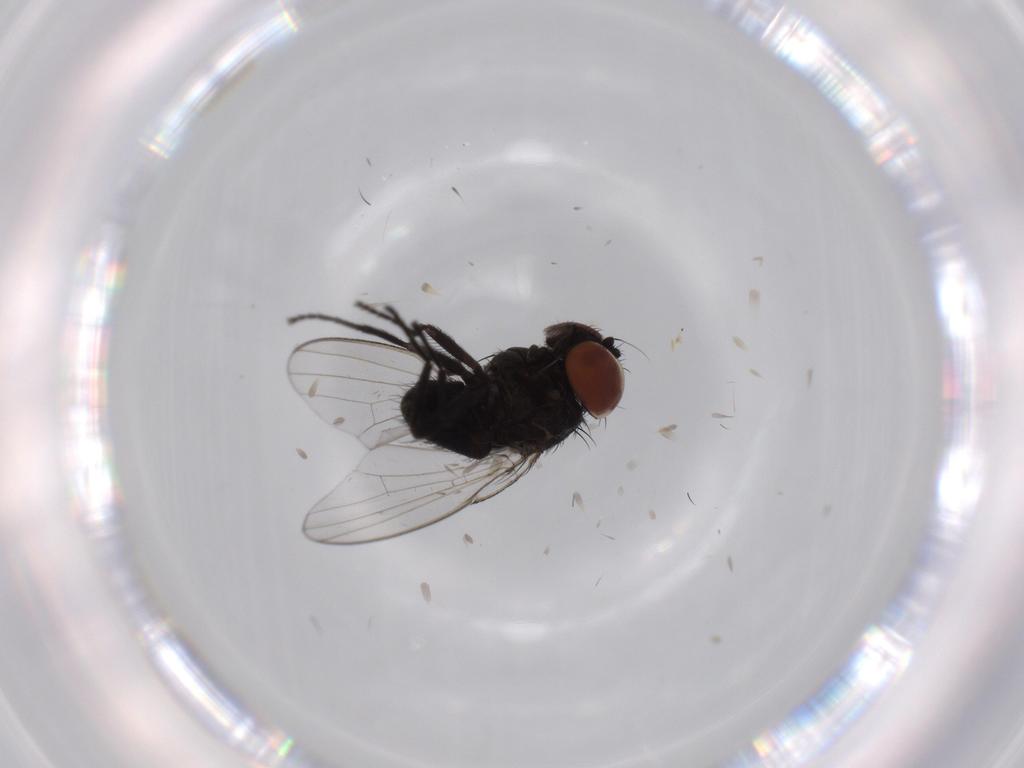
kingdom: Animalia
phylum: Arthropoda
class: Insecta
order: Diptera
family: Milichiidae
